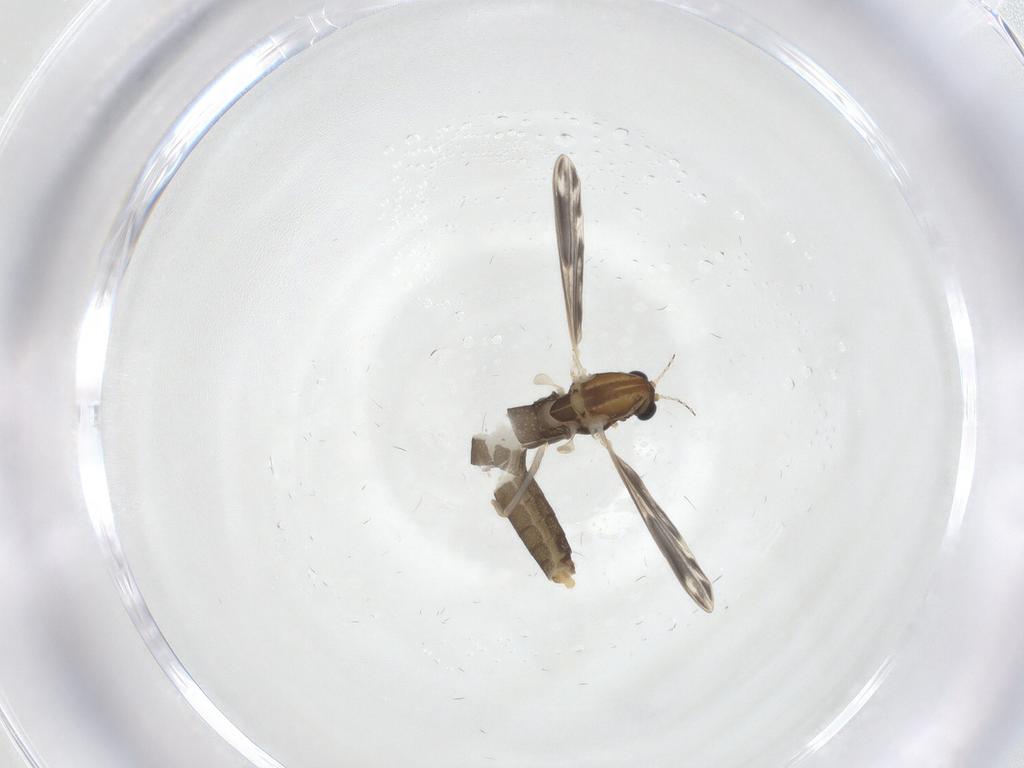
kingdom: Animalia
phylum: Arthropoda
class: Insecta
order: Diptera
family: Chironomidae
